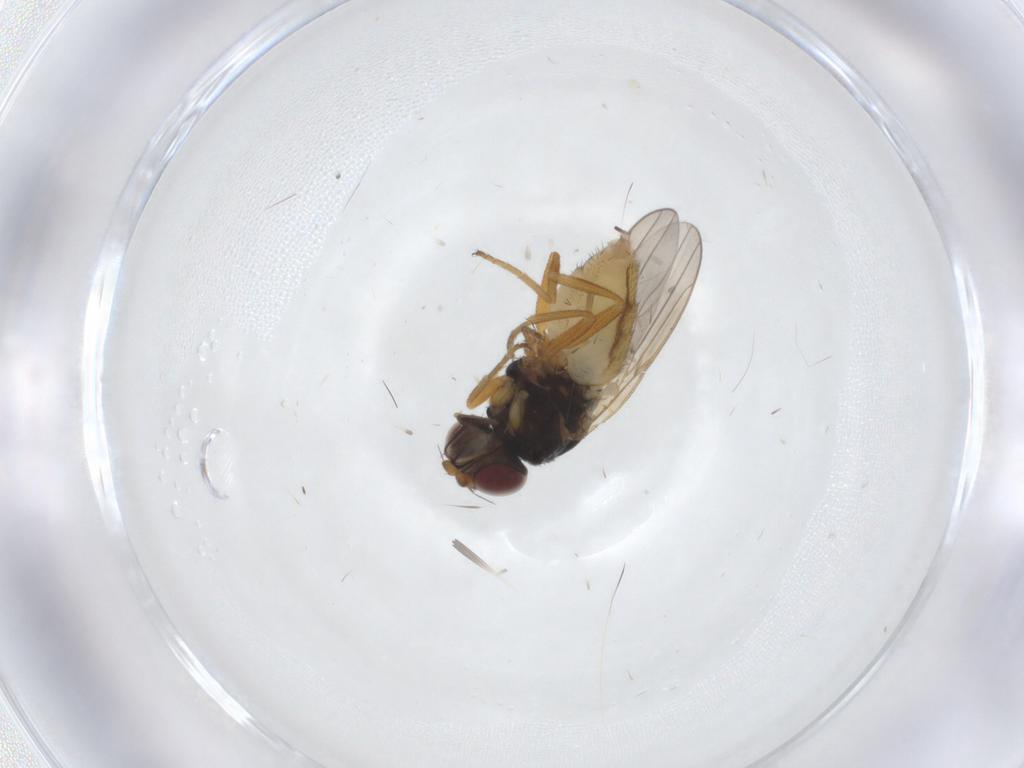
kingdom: Animalia
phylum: Arthropoda
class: Insecta
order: Diptera
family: Chloropidae
